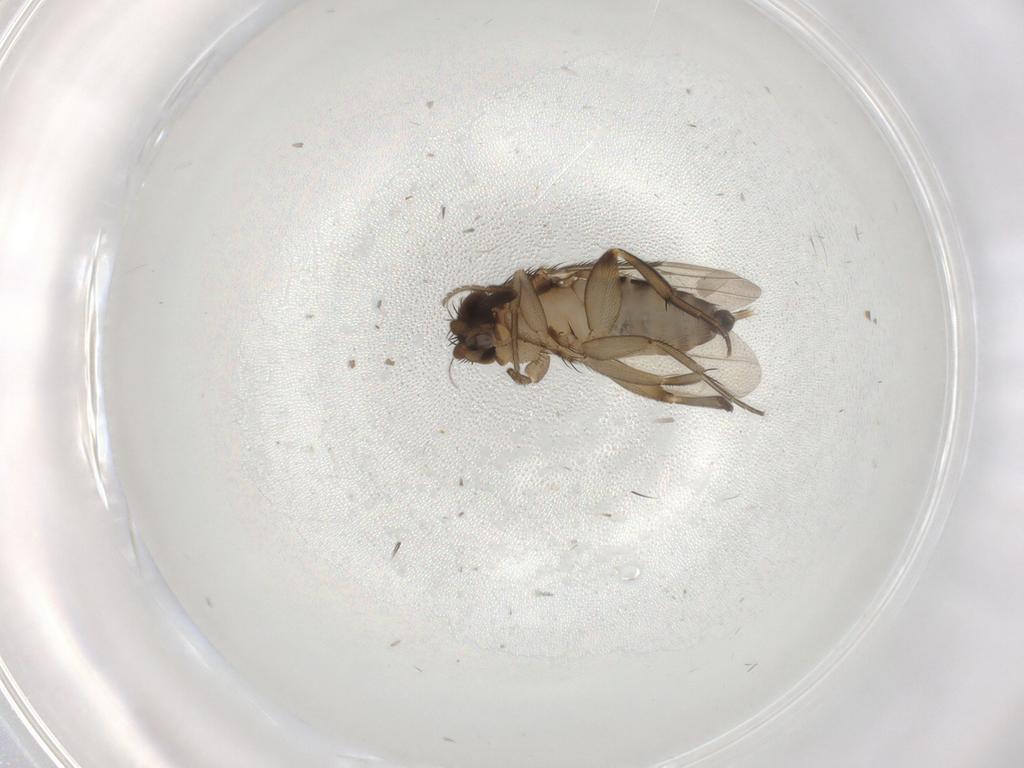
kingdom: Animalia
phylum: Arthropoda
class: Insecta
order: Diptera
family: Phoridae
